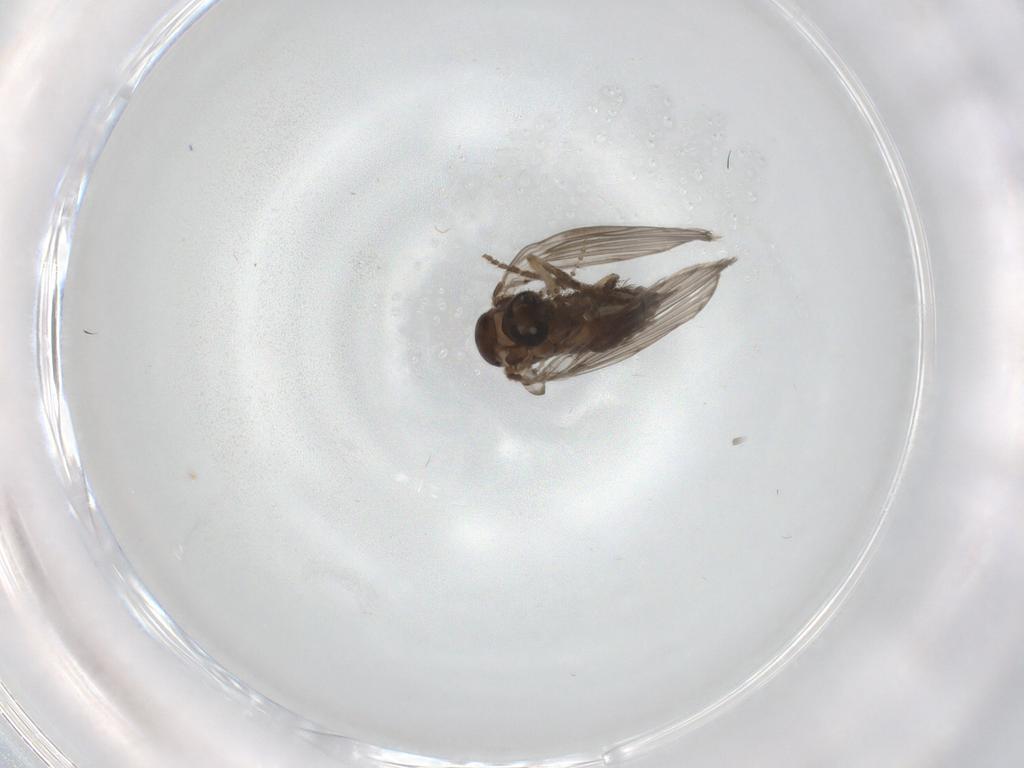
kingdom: Animalia
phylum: Arthropoda
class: Insecta
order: Diptera
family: Psychodidae
